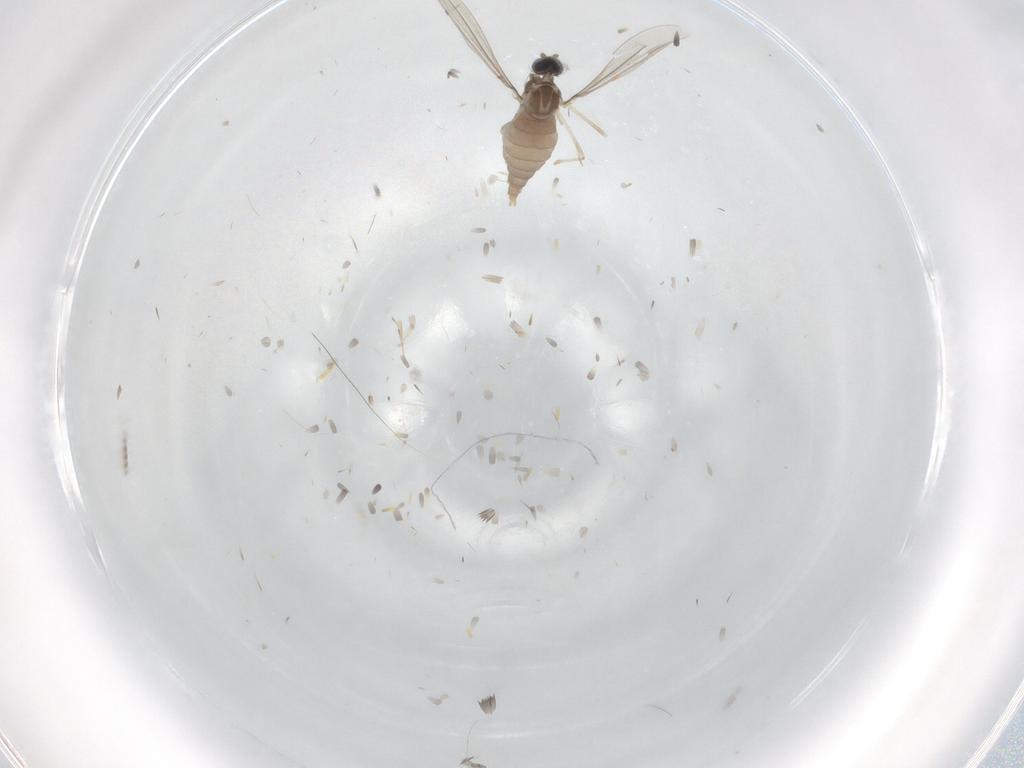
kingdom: Animalia
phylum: Arthropoda
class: Insecta
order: Diptera
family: Cecidomyiidae
